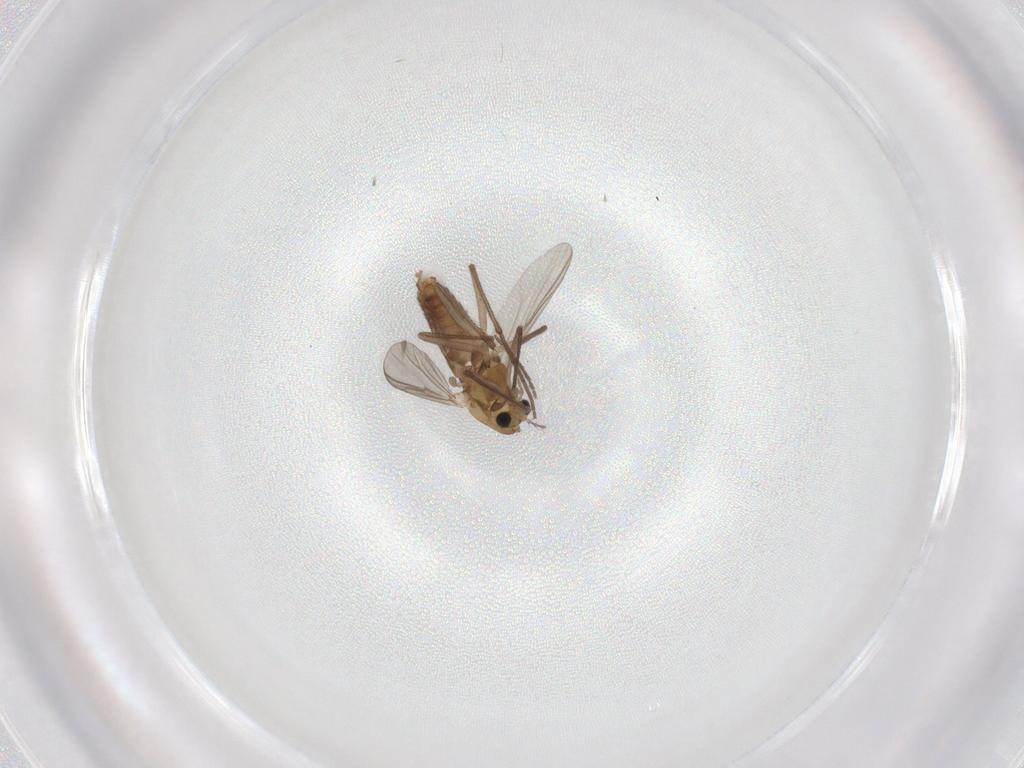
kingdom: Animalia
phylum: Arthropoda
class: Insecta
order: Diptera
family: Chironomidae
